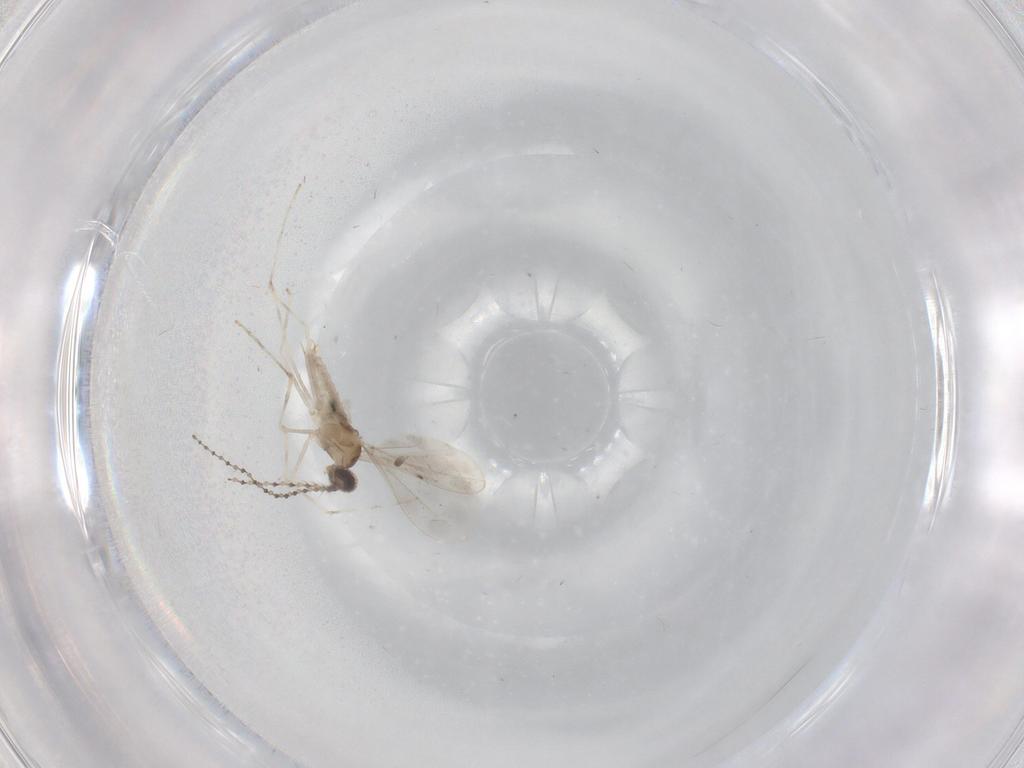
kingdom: Animalia
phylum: Arthropoda
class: Insecta
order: Diptera
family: Cecidomyiidae
